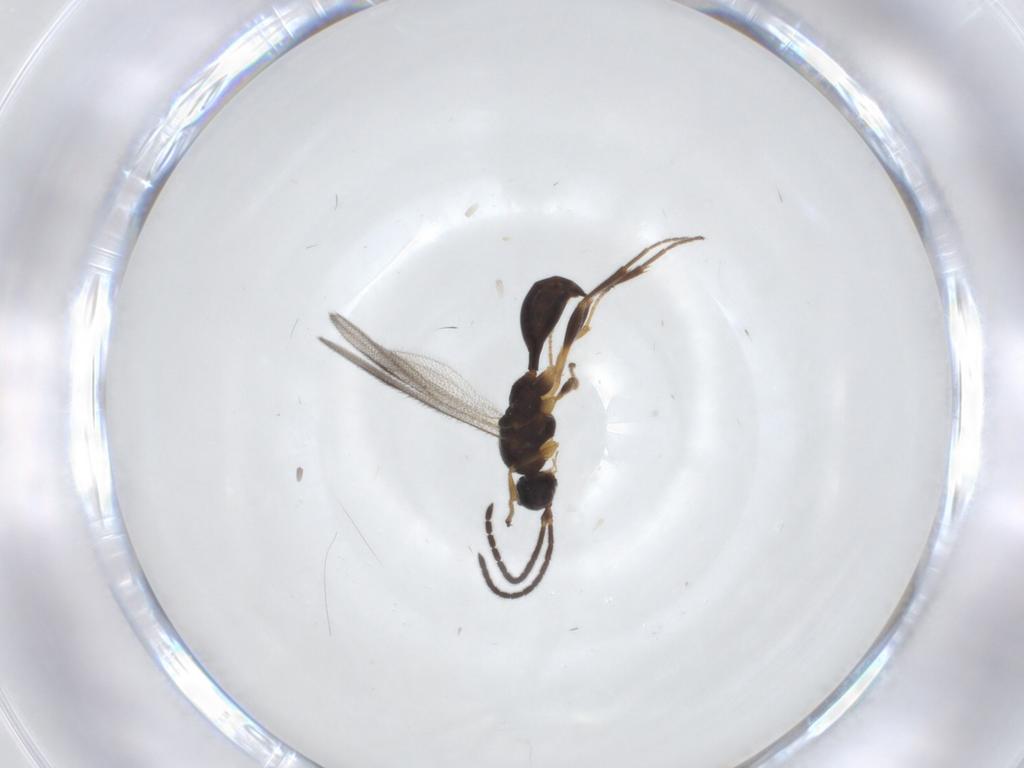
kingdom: Animalia
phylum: Arthropoda
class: Insecta
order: Hymenoptera
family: Proctotrupidae
